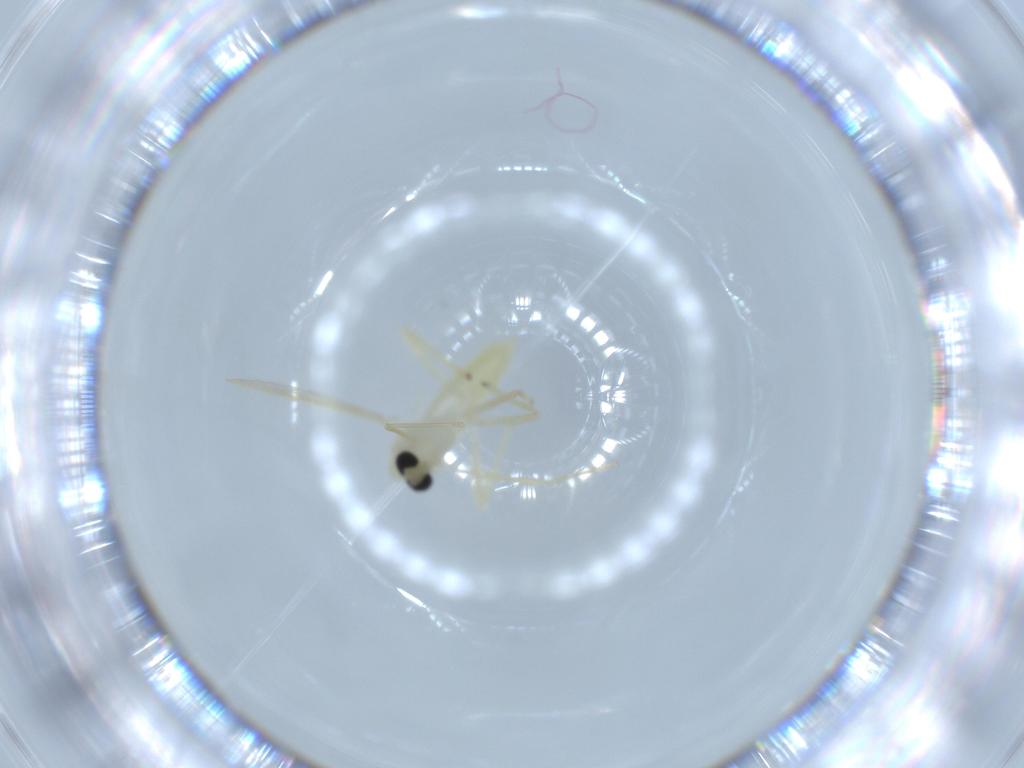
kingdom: Animalia
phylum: Arthropoda
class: Insecta
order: Diptera
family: Chironomidae
